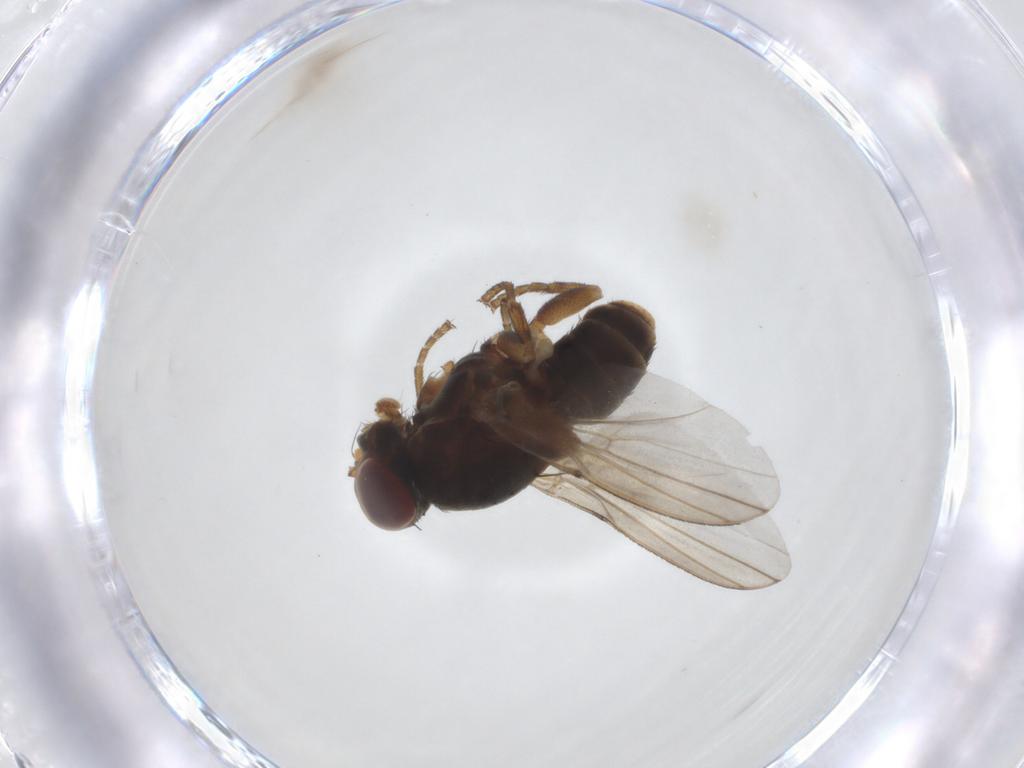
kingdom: Animalia
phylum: Arthropoda
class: Insecta
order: Diptera
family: Odiniidae
